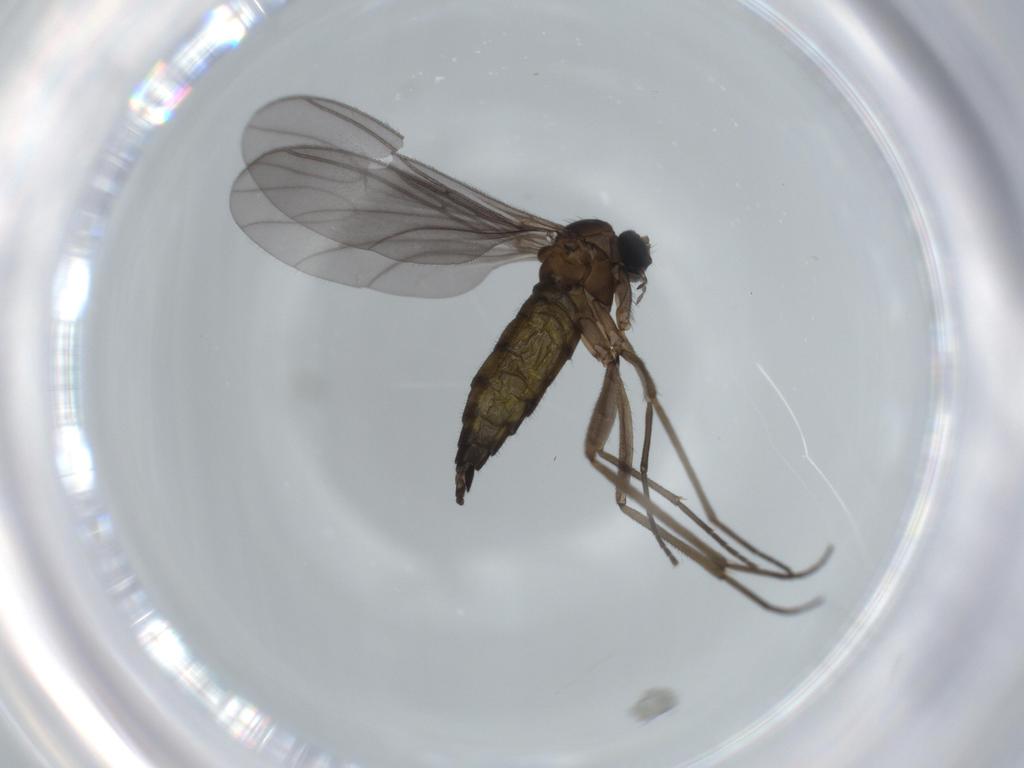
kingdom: Animalia
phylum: Arthropoda
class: Insecta
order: Diptera
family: Sciaridae
